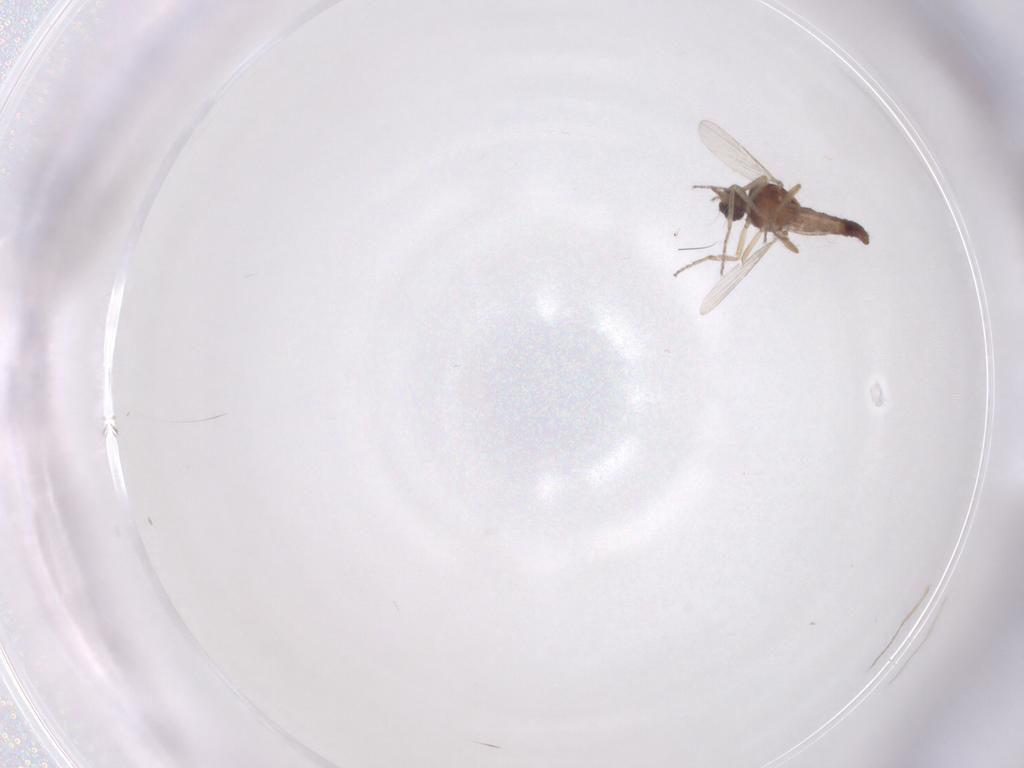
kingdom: Animalia
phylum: Arthropoda
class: Insecta
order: Diptera
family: Ceratopogonidae
